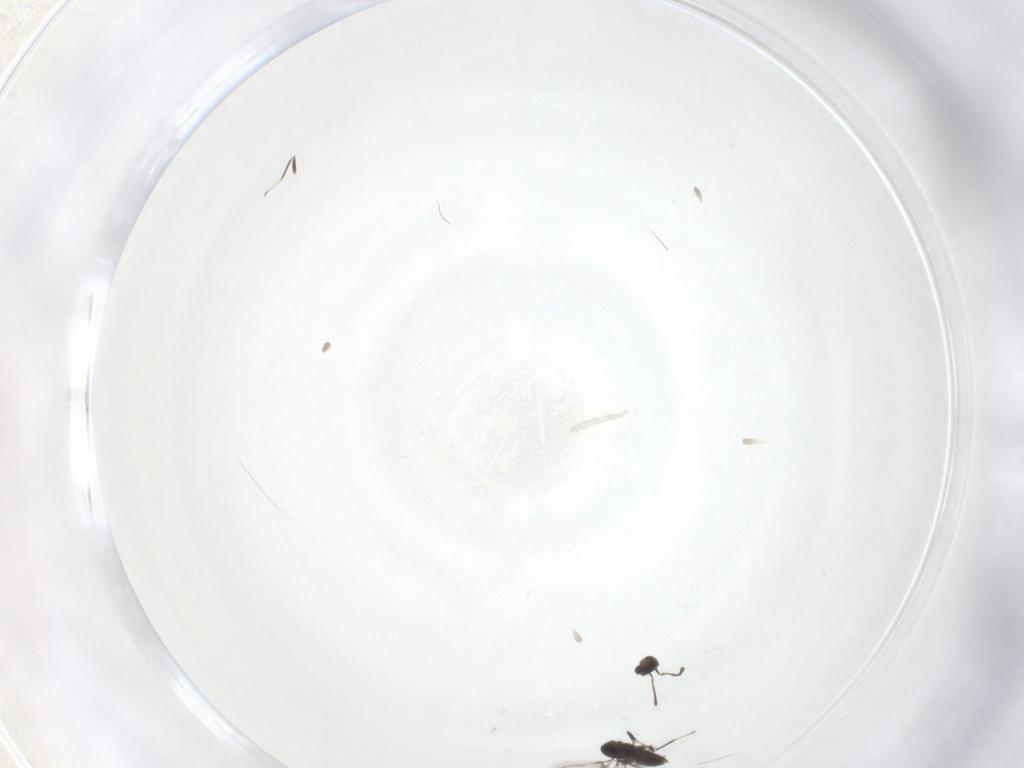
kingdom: Animalia
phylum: Arthropoda
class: Insecta
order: Hymenoptera
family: Mymaridae
